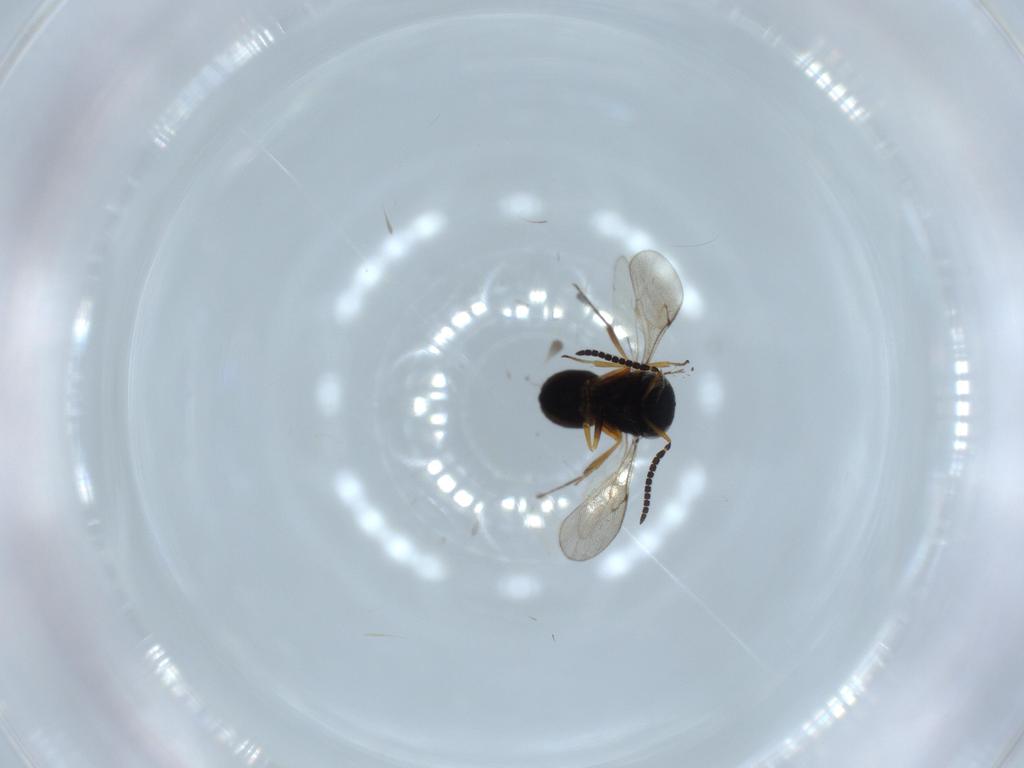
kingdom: Animalia
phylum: Arthropoda
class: Insecta
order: Hymenoptera
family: Scelionidae
